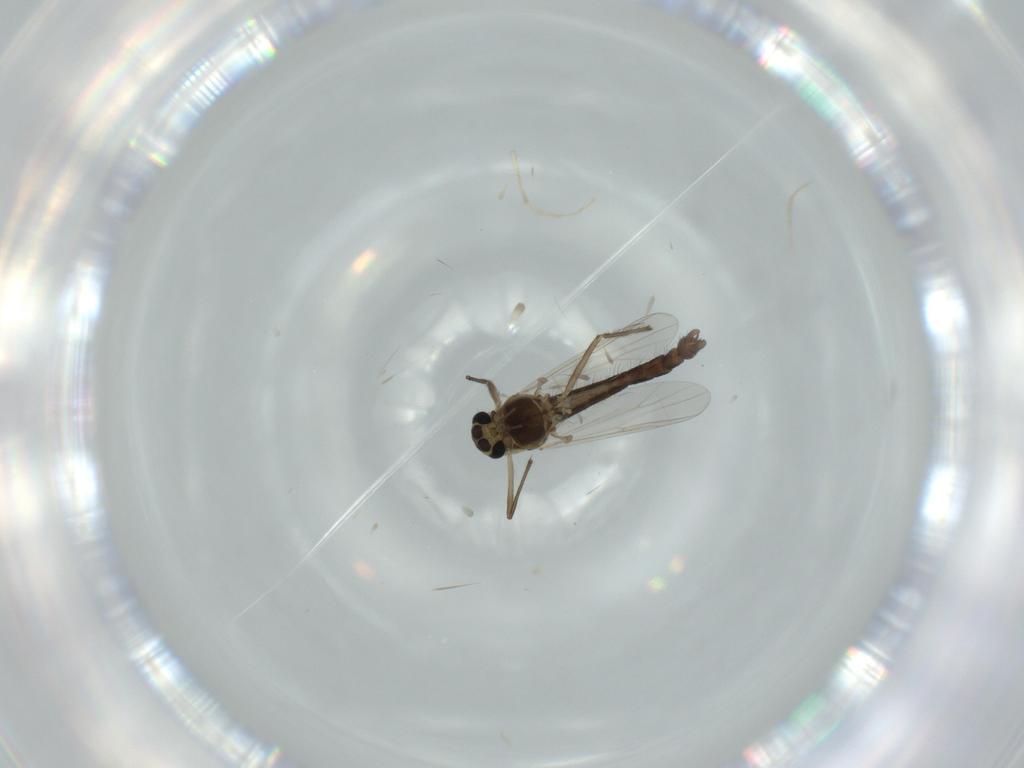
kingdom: Animalia
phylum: Arthropoda
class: Insecta
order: Diptera
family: Chironomidae
